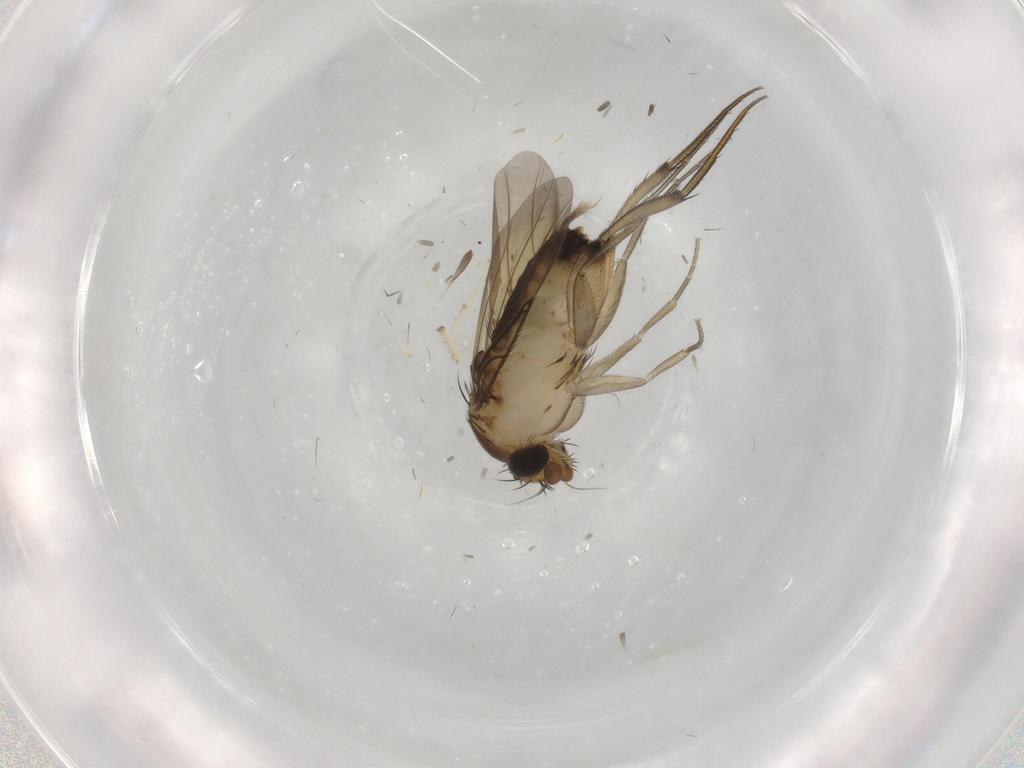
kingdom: Animalia
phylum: Arthropoda
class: Insecta
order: Diptera
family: Phoridae
